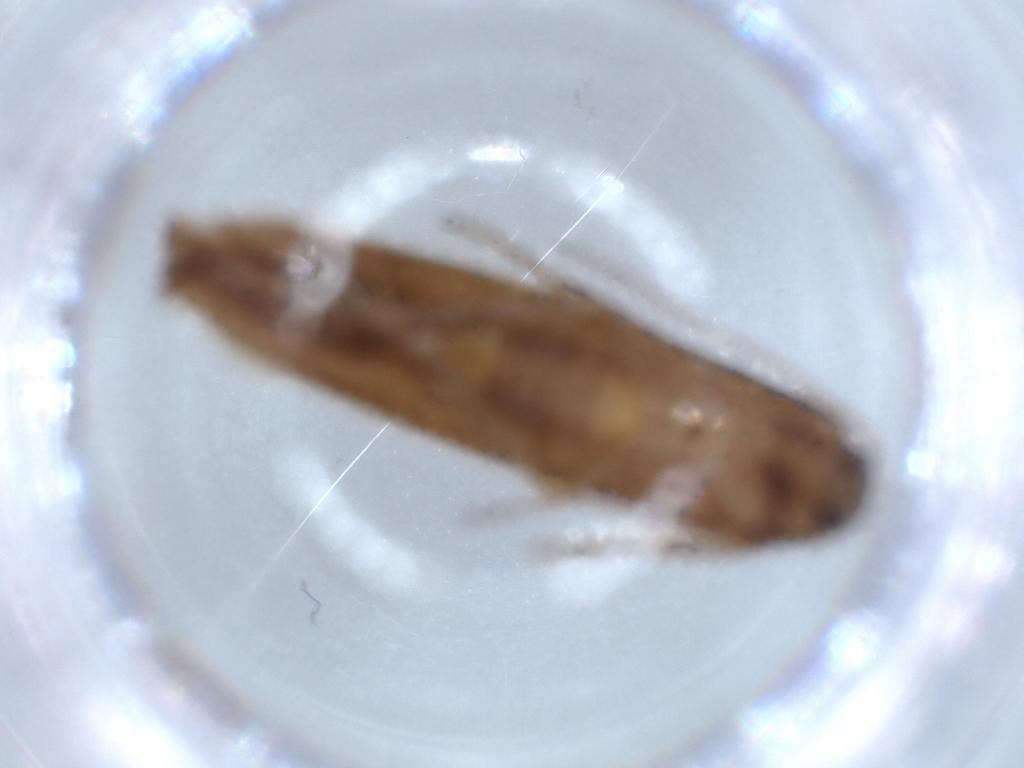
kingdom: Animalia
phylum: Arthropoda
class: Insecta
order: Lepidoptera
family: Stathmopodidae
